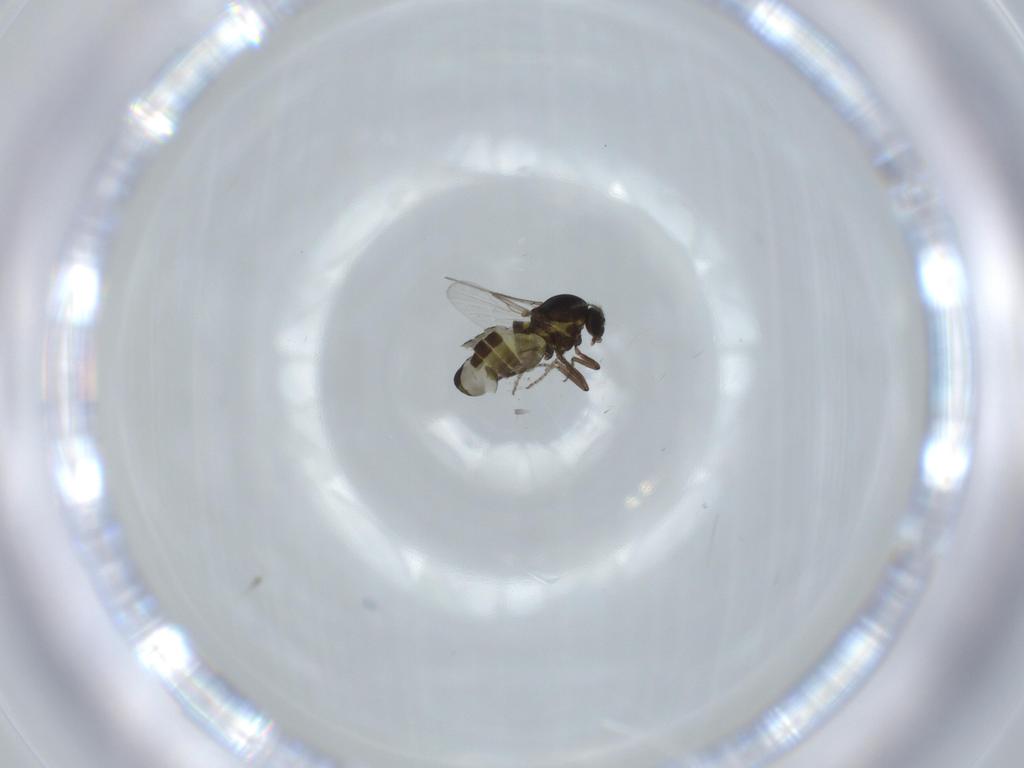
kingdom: Animalia
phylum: Arthropoda
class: Insecta
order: Diptera
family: Ceratopogonidae
